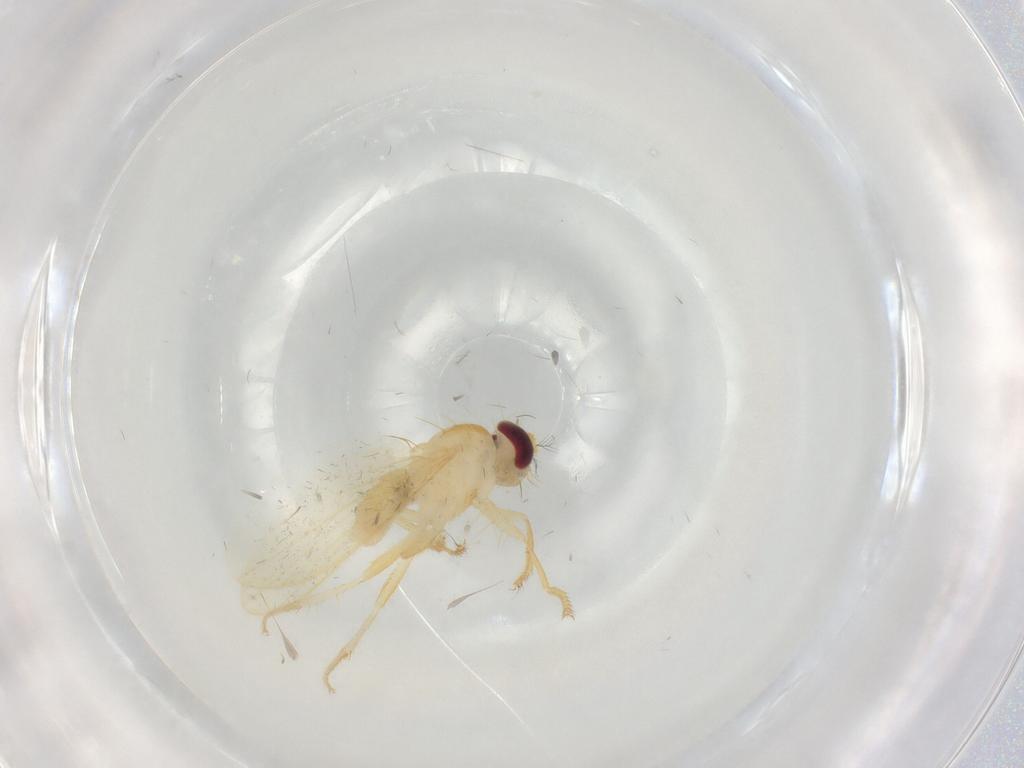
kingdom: Animalia
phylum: Arthropoda
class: Insecta
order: Diptera
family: Periscelididae
